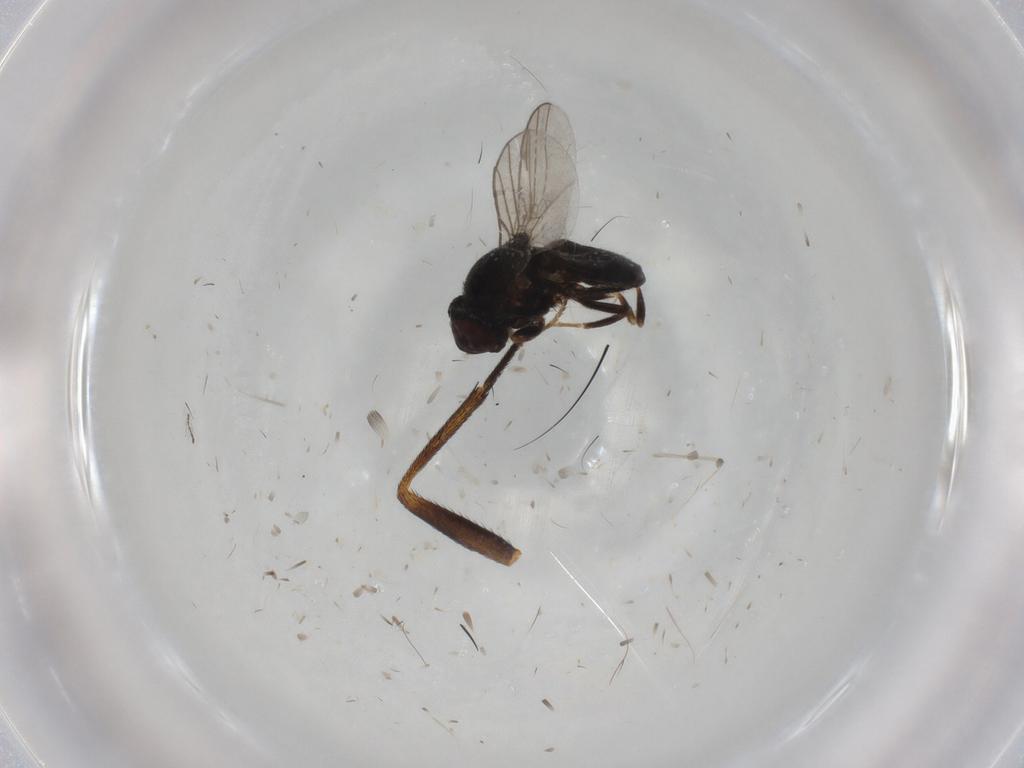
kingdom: Animalia
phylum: Arthropoda
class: Insecta
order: Diptera
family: Chloropidae
